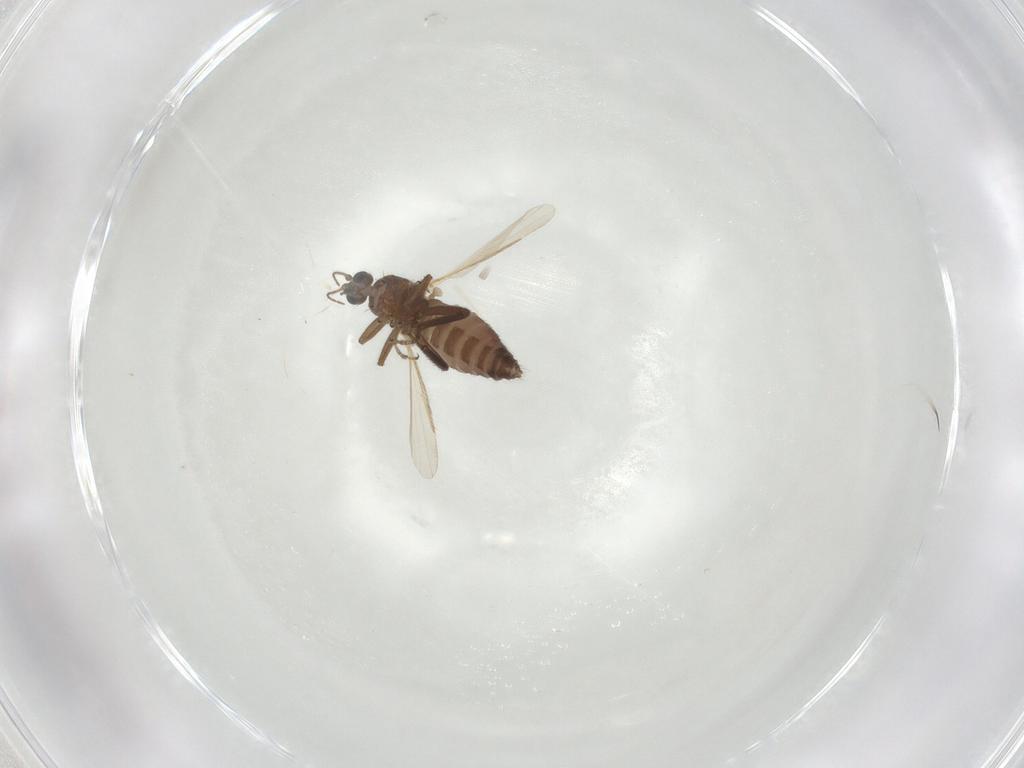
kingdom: Animalia
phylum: Arthropoda
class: Insecta
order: Diptera
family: Ceratopogonidae
